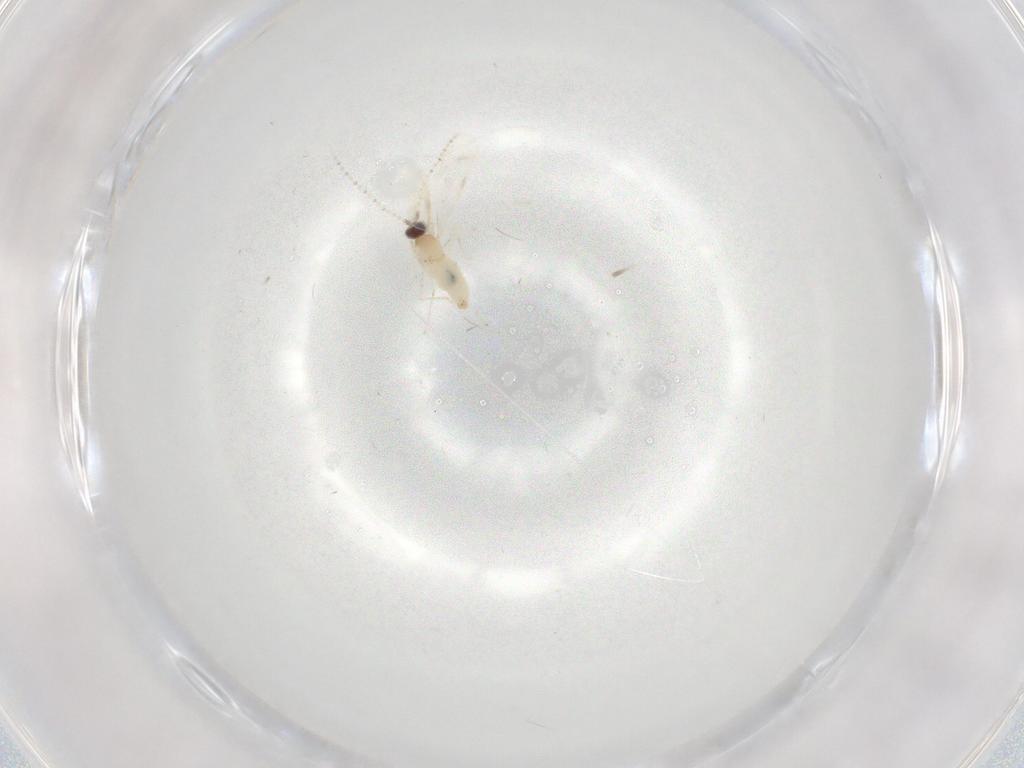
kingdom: Animalia
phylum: Arthropoda
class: Insecta
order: Diptera
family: Cecidomyiidae
